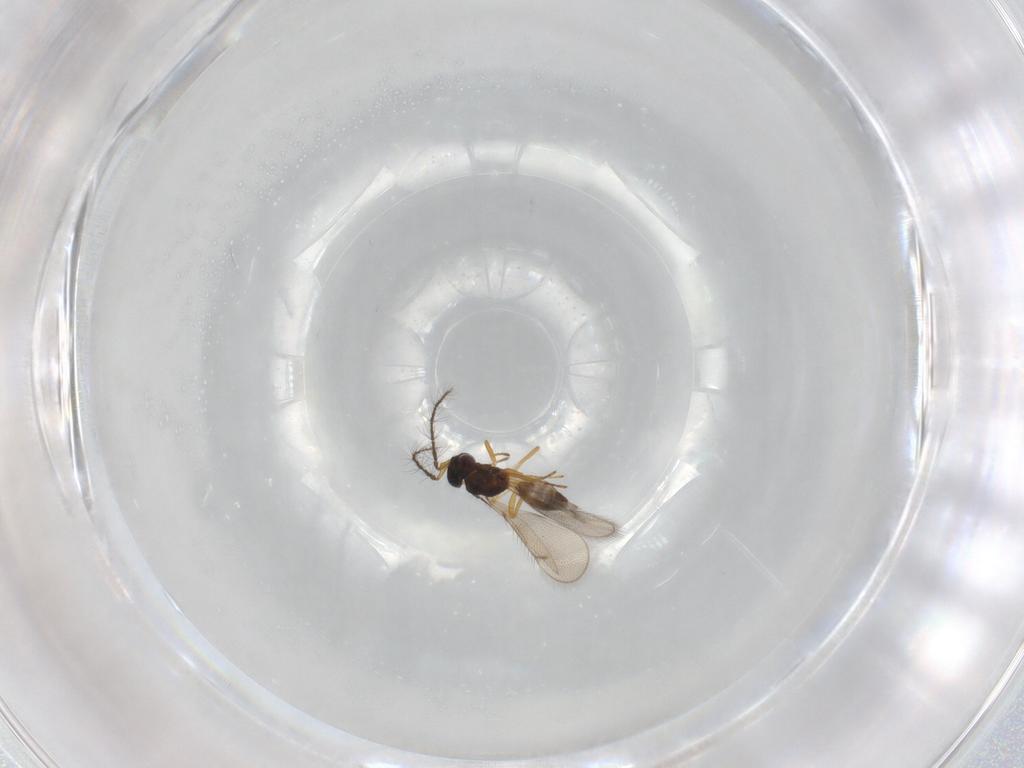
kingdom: Animalia
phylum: Arthropoda
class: Insecta
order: Hymenoptera
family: Eulophidae
